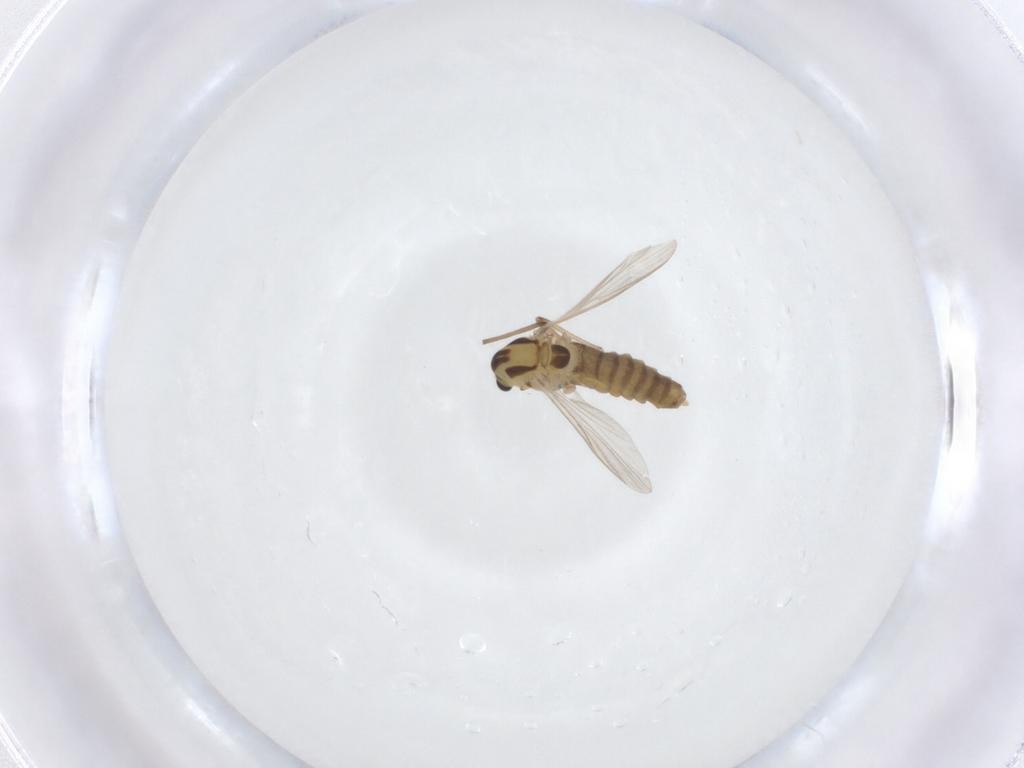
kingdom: Animalia
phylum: Arthropoda
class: Insecta
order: Diptera
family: Chironomidae
